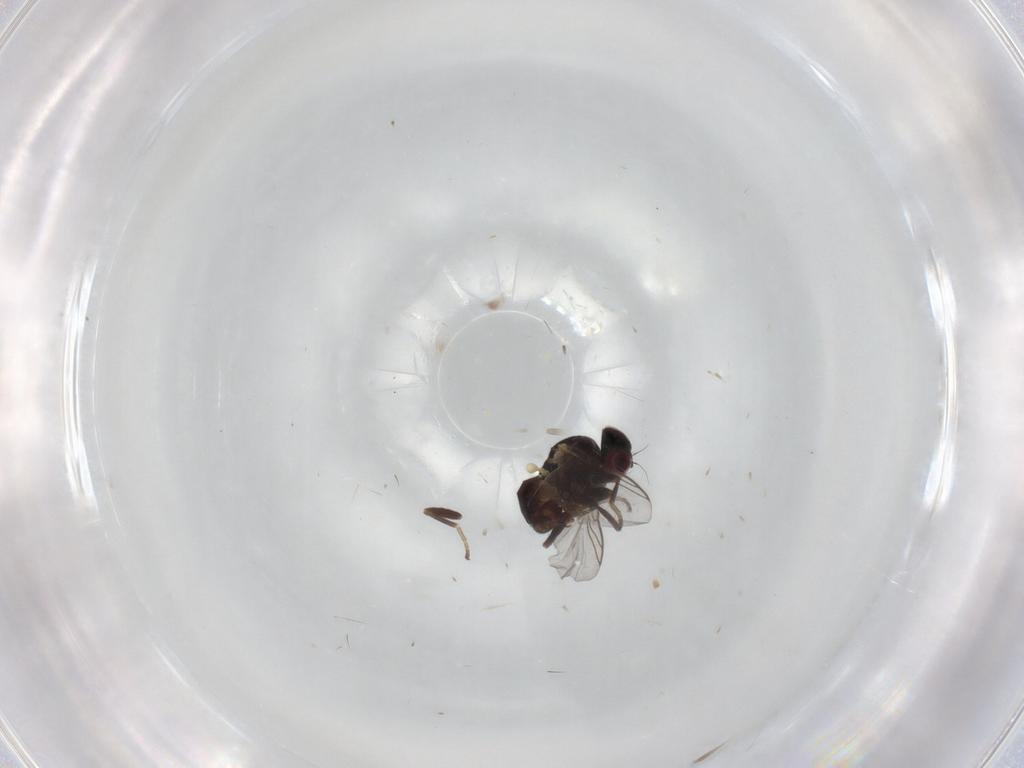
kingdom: Animalia
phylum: Arthropoda
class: Insecta
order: Diptera
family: Agromyzidae
